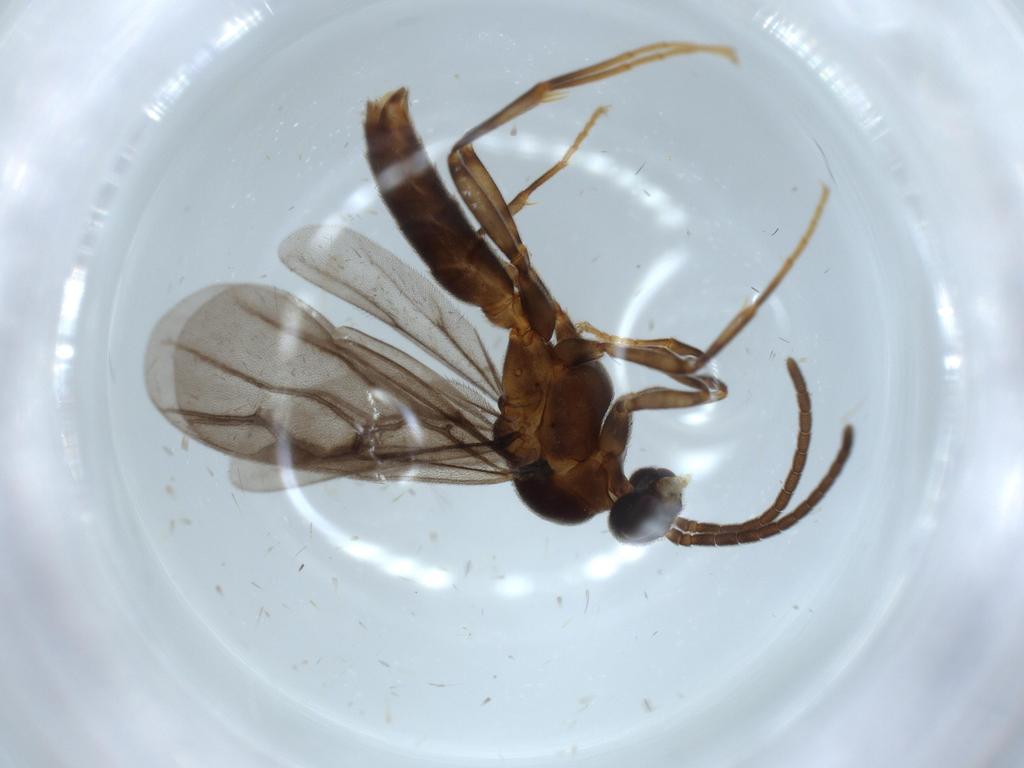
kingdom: Animalia
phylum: Arthropoda
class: Insecta
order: Hymenoptera
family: Formicidae
